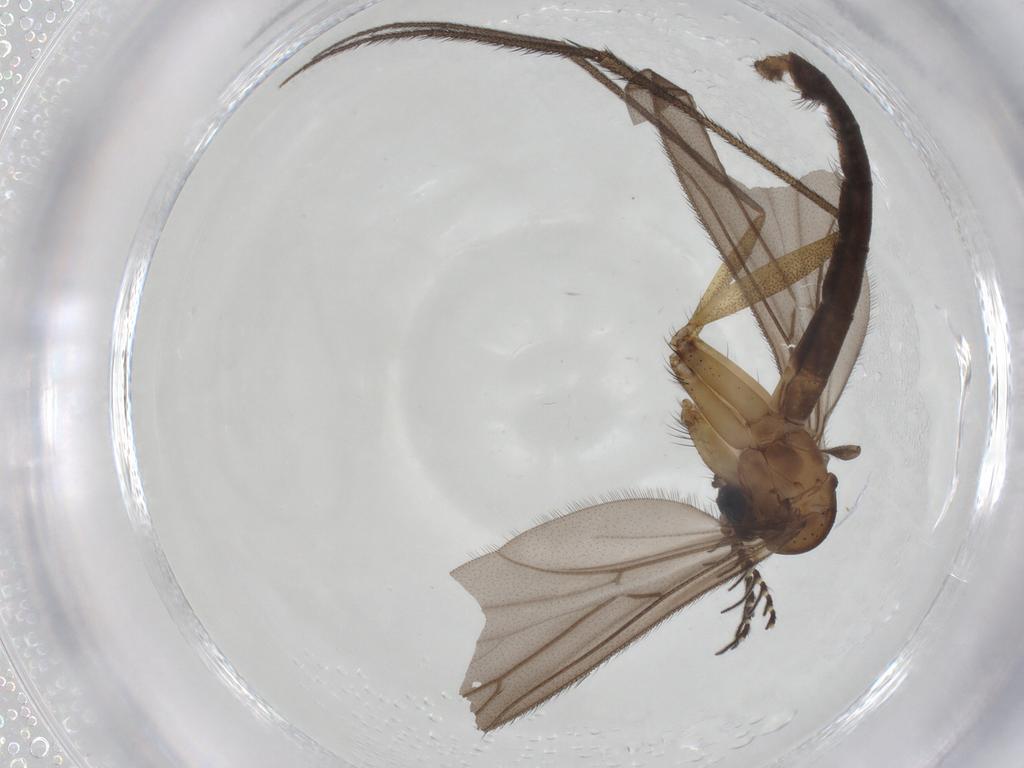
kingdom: Animalia
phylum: Arthropoda
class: Insecta
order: Diptera
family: Ditomyiidae
